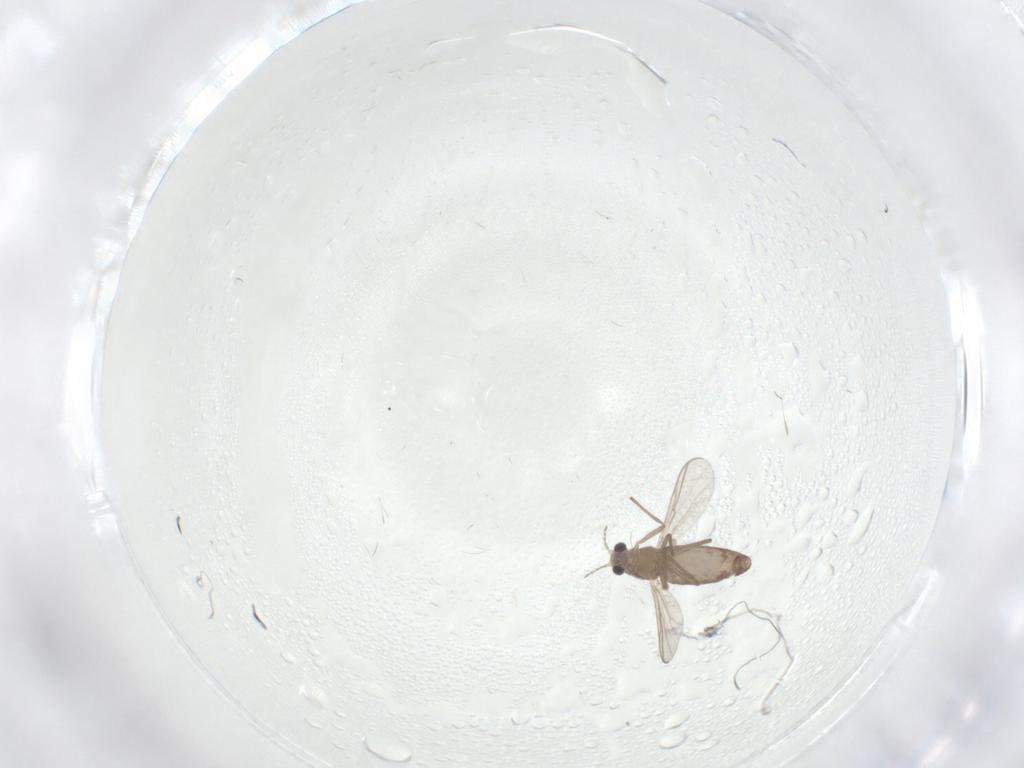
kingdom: Animalia
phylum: Arthropoda
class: Insecta
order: Diptera
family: Chironomidae
